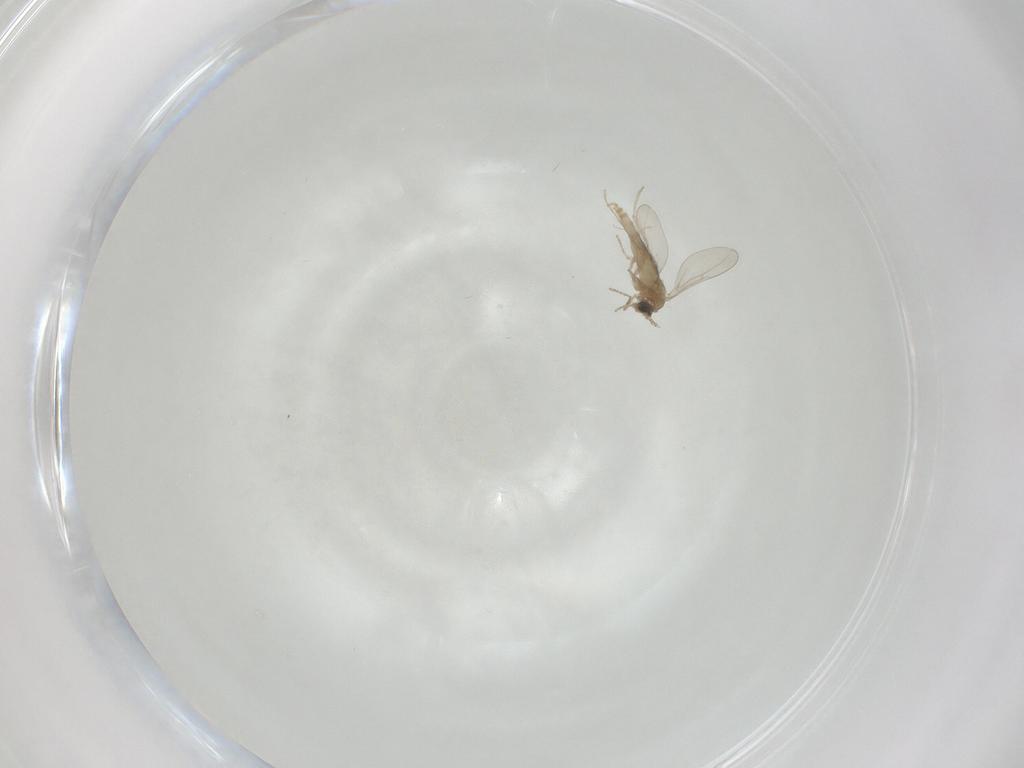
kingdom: Animalia
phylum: Arthropoda
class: Insecta
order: Diptera
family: Cecidomyiidae
